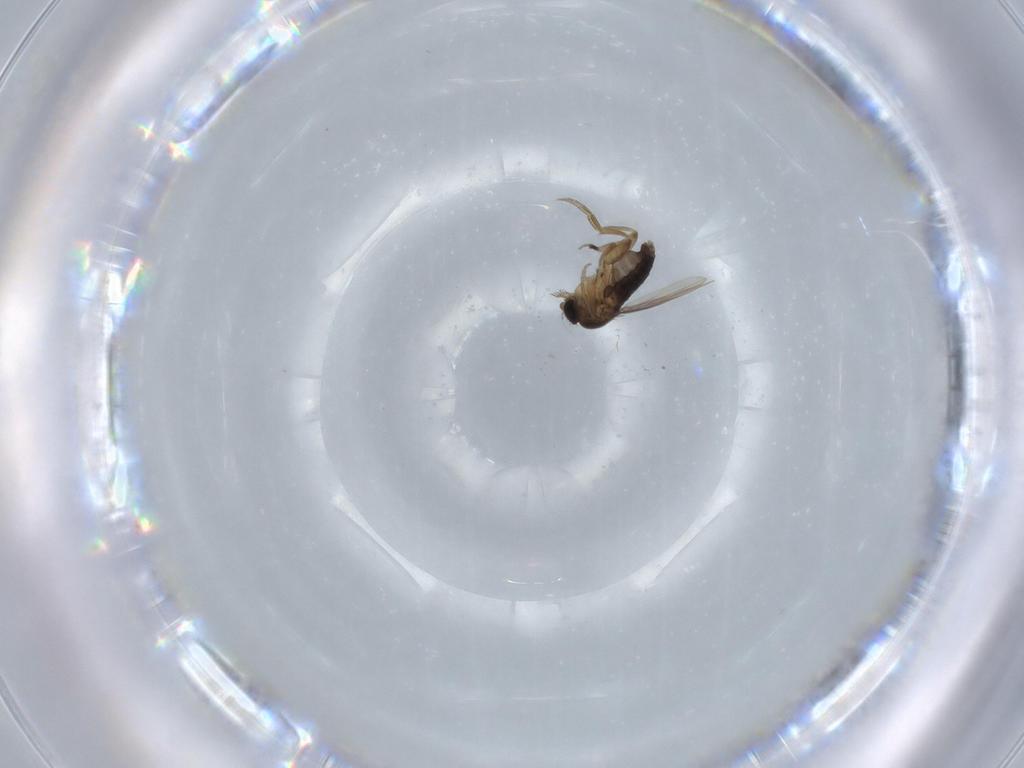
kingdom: Animalia
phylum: Arthropoda
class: Insecta
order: Diptera
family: Phoridae
